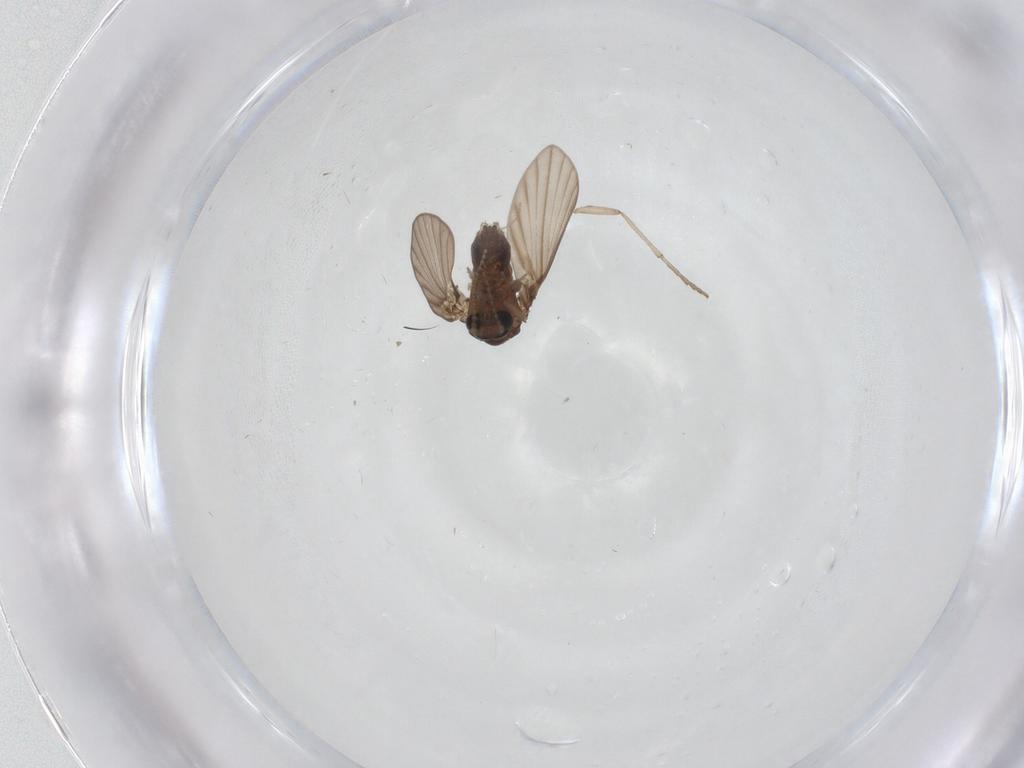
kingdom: Animalia
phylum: Arthropoda
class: Insecta
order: Diptera
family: Psychodidae
